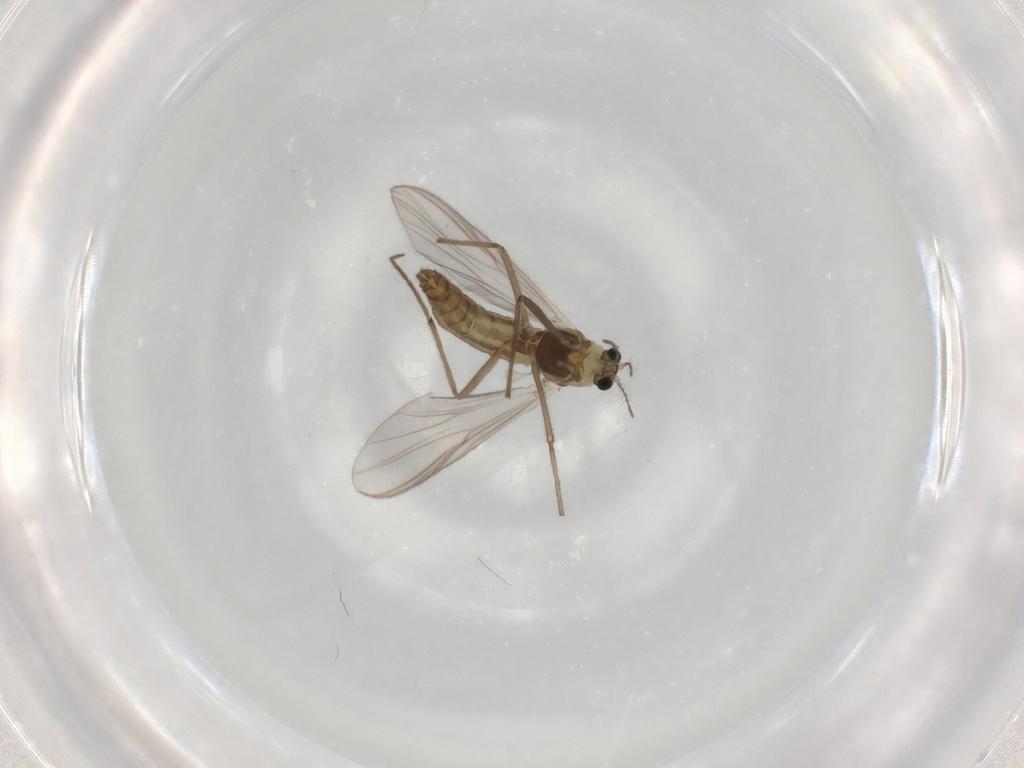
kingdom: Animalia
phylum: Arthropoda
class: Insecta
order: Diptera
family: Chironomidae
